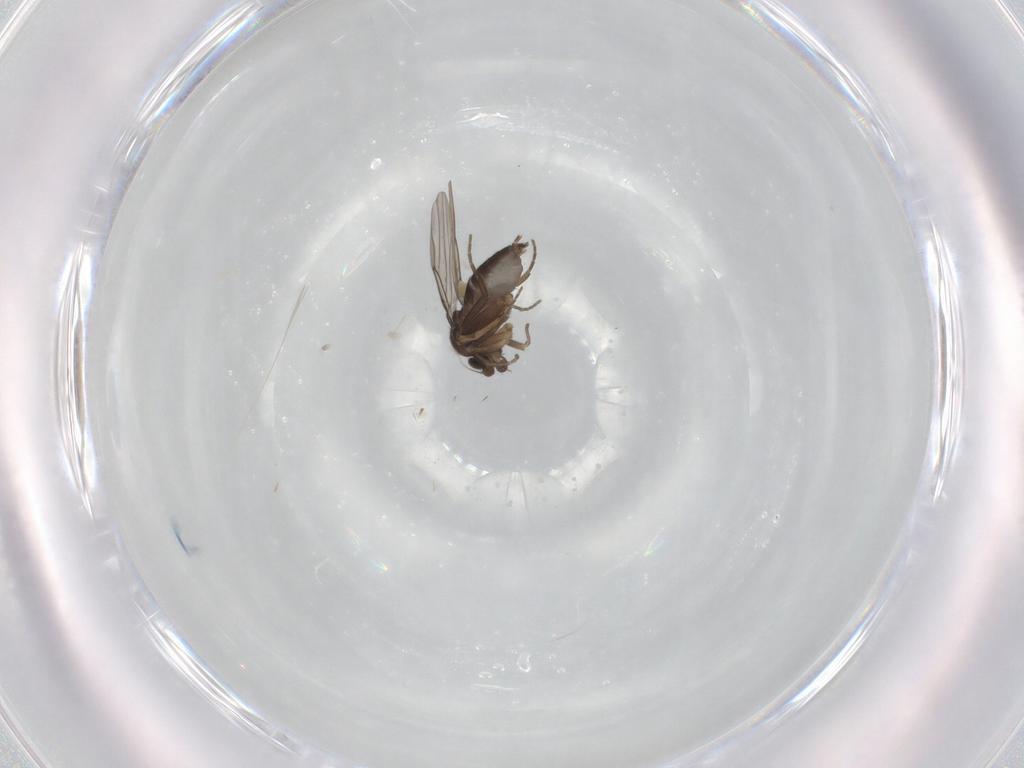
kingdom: Animalia
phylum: Arthropoda
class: Insecta
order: Diptera
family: Phoridae
